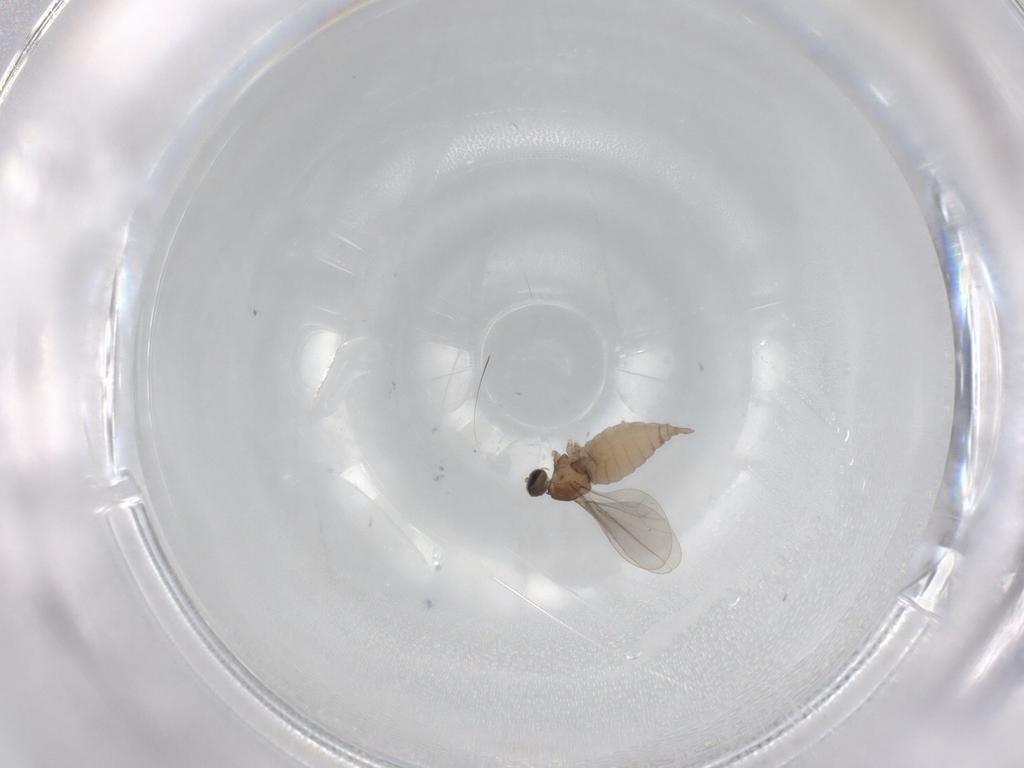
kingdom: Animalia
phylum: Arthropoda
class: Insecta
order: Diptera
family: Cecidomyiidae
